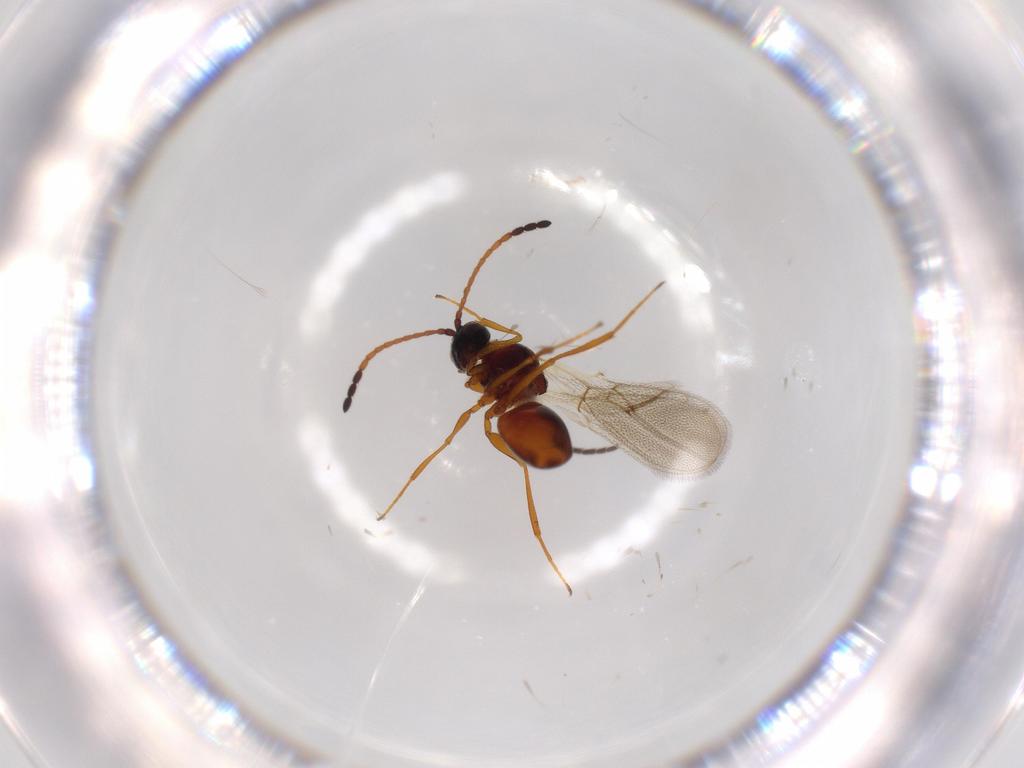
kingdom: Animalia
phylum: Arthropoda
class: Insecta
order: Hymenoptera
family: Figitidae
